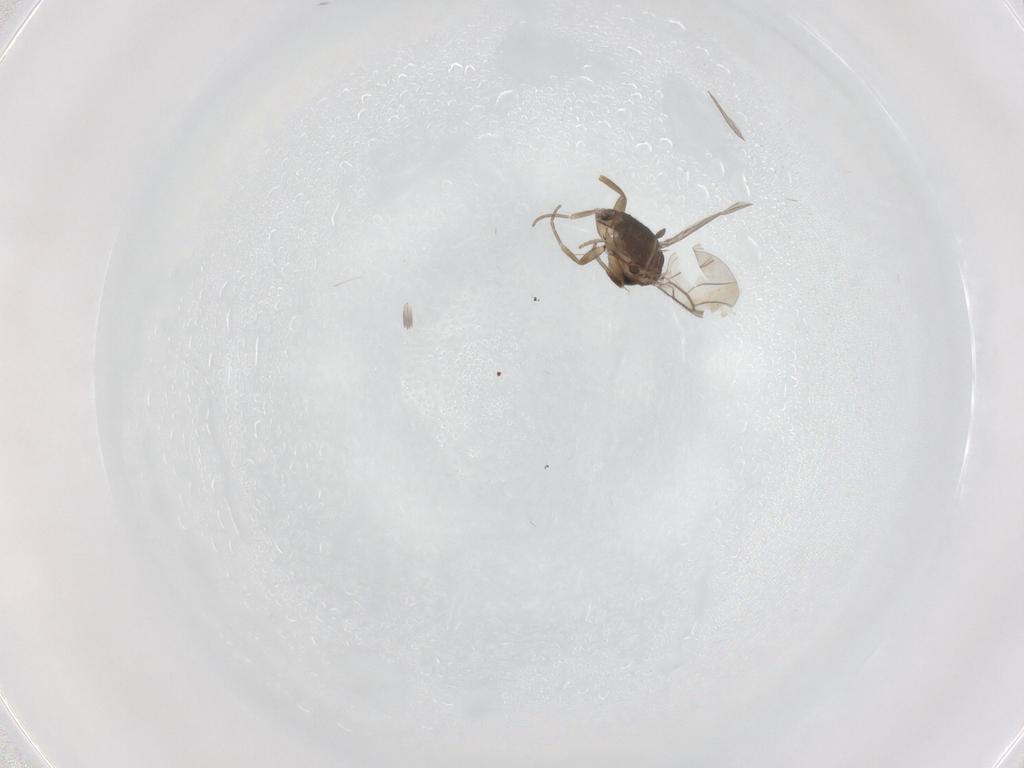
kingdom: Animalia
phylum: Arthropoda
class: Insecta
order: Diptera
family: Phoridae
